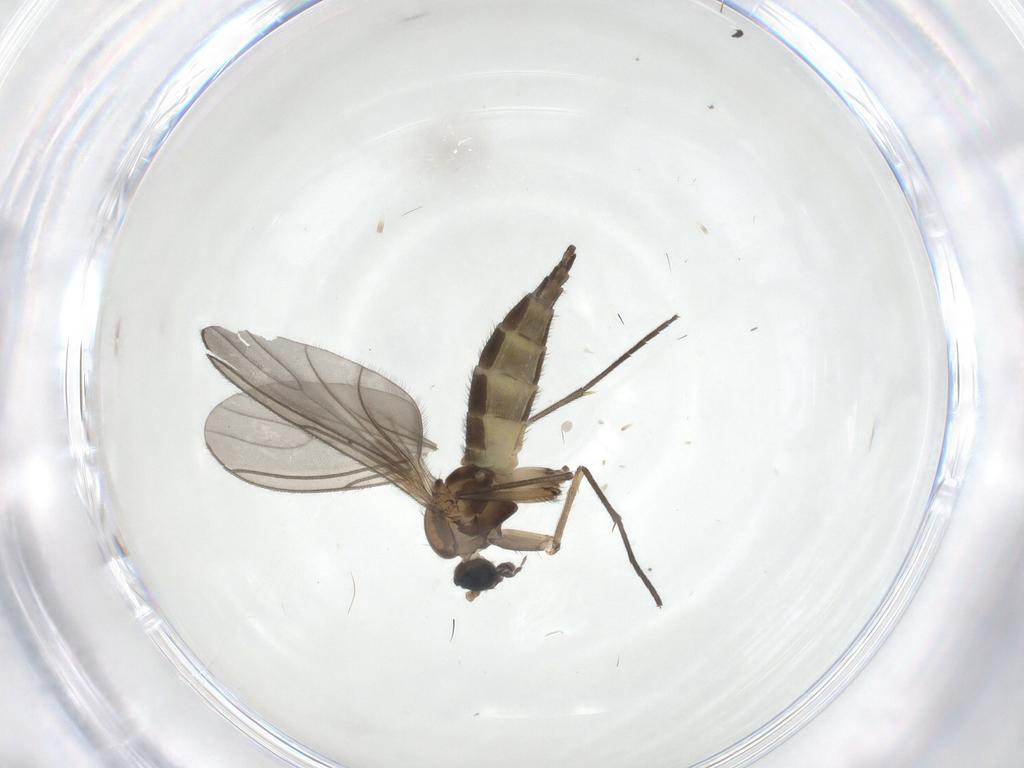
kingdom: Animalia
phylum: Arthropoda
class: Insecta
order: Diptera
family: Sciaridae
